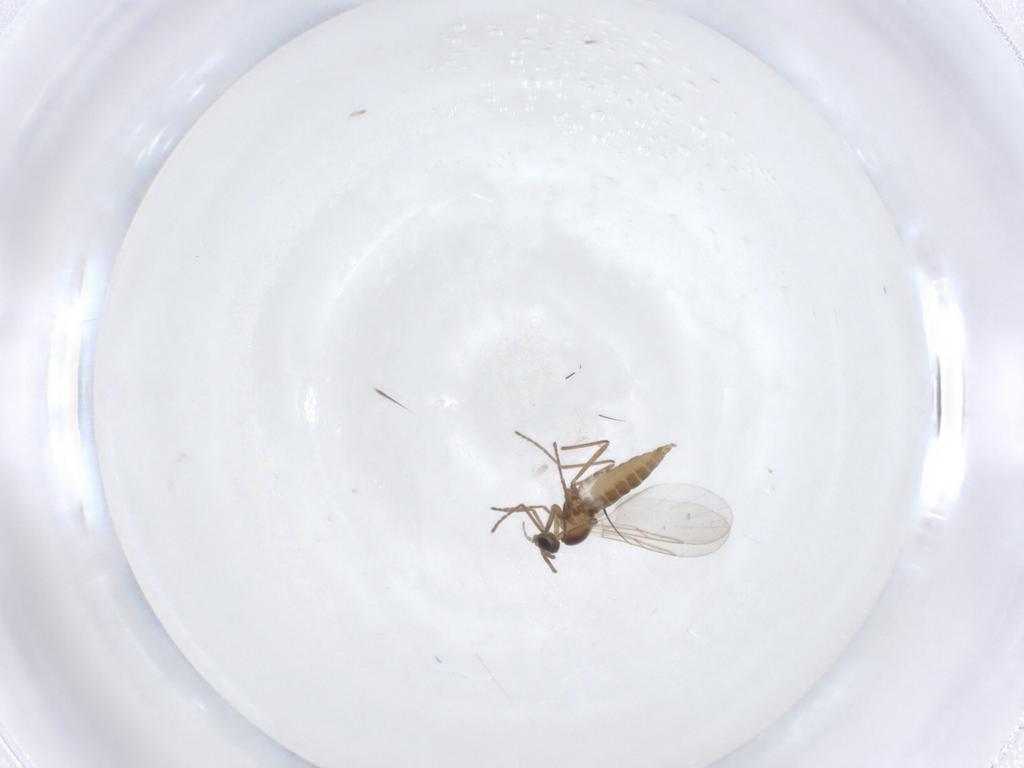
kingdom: Animalia
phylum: Arthropoda
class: Insecta
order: Diptera
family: Cecidomyiidae
